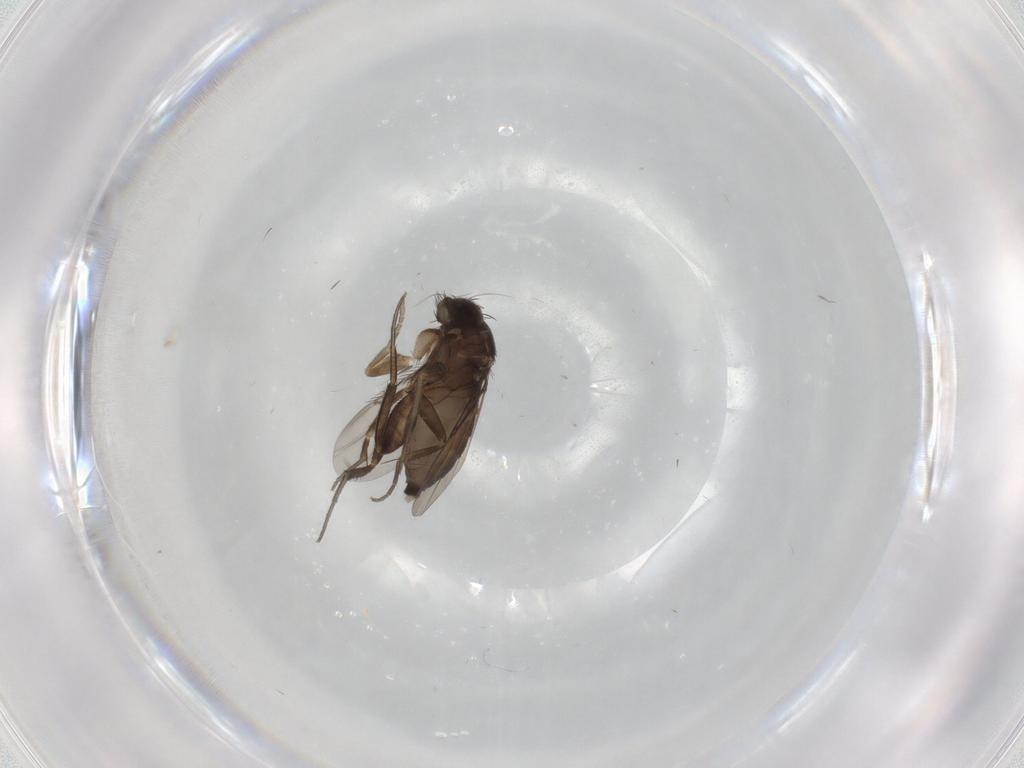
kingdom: Animalia
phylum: Arthropoda
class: Insecta
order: Diptera
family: Phoridae
